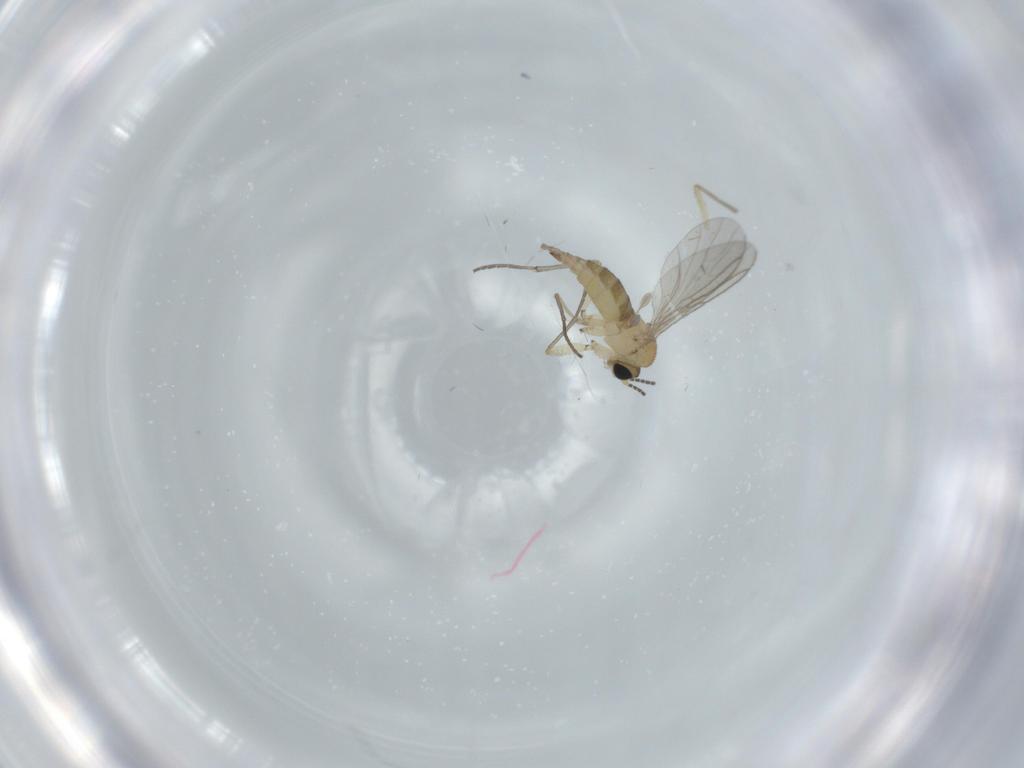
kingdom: Animalia
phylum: Arthropoda
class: Insecta
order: Diptera
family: Sciaridae
